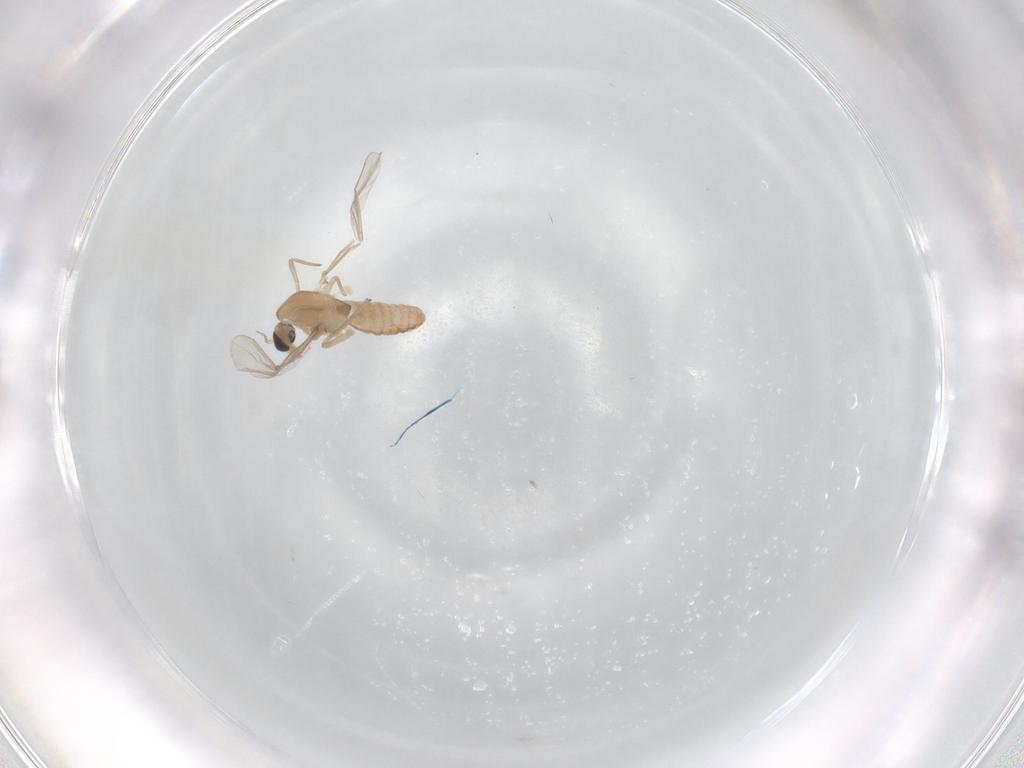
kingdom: Animalia
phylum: Arthropoda
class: Insecta
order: Diptera
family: Chironomidae
